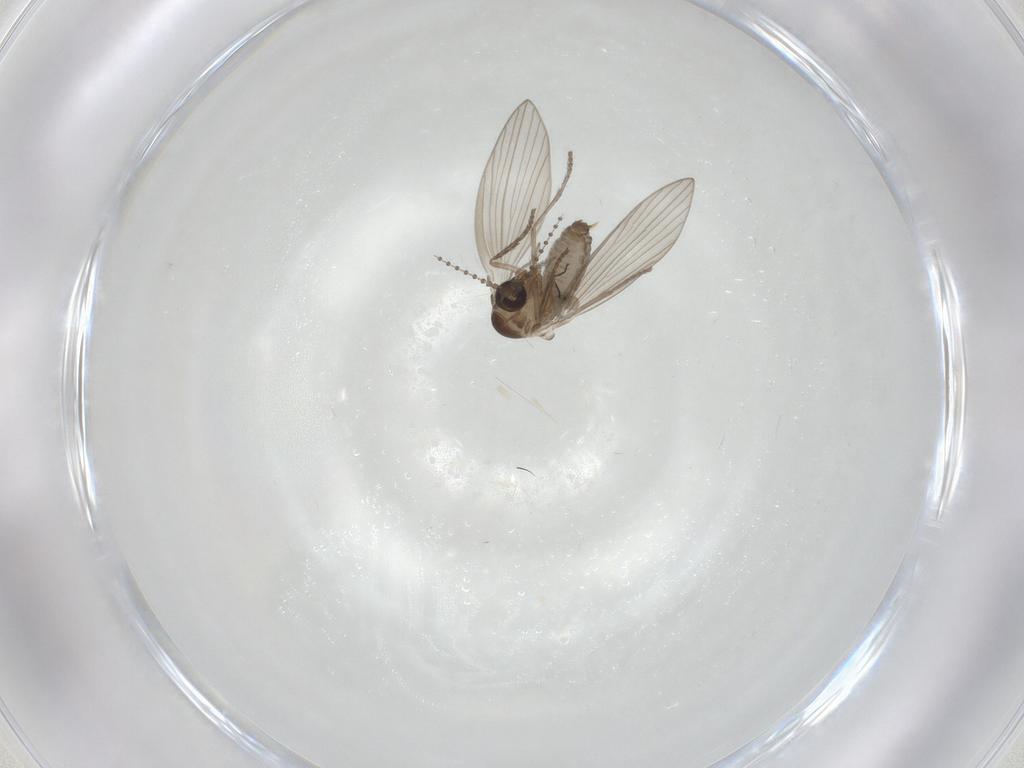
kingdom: Animalia
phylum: Arthropoda
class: Insecta
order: Diptera
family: Psychodidae
